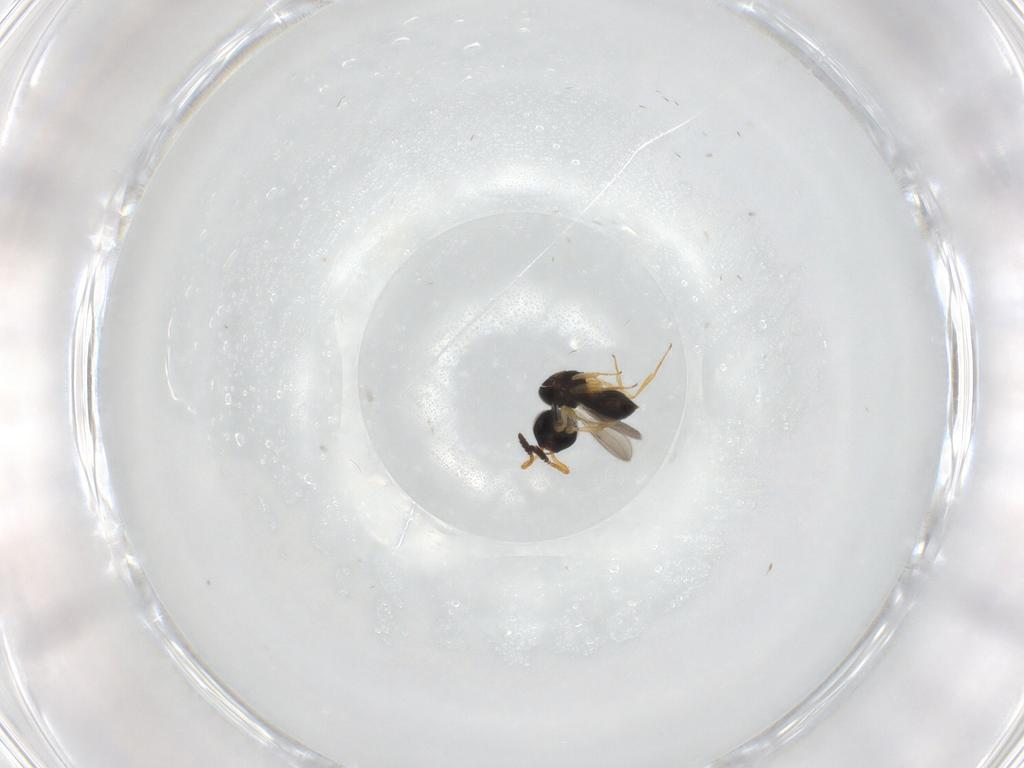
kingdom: Animalia
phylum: Arthropoda
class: Insecta
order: Hymenoptera
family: Scelionidae
